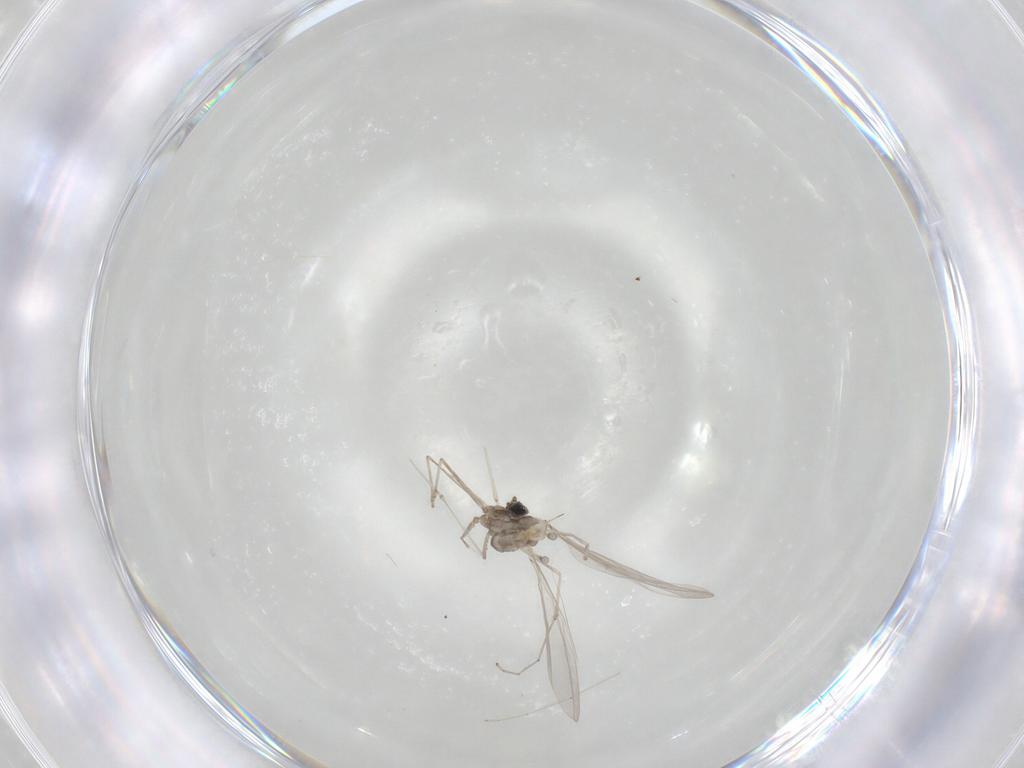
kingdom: Animalia
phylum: Arthropoda
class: Insecta
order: Diptera
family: Cecidomyiidae
